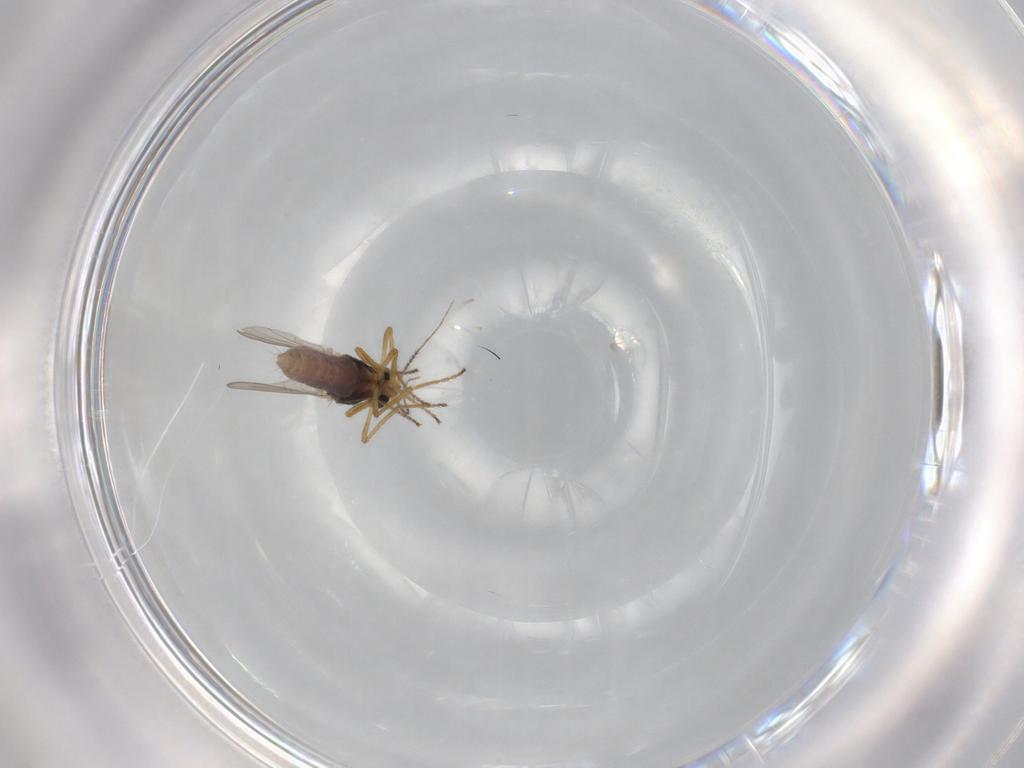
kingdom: Animalia
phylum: Arthropoda
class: Insecta
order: Diptera
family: Ceratopogonidae
